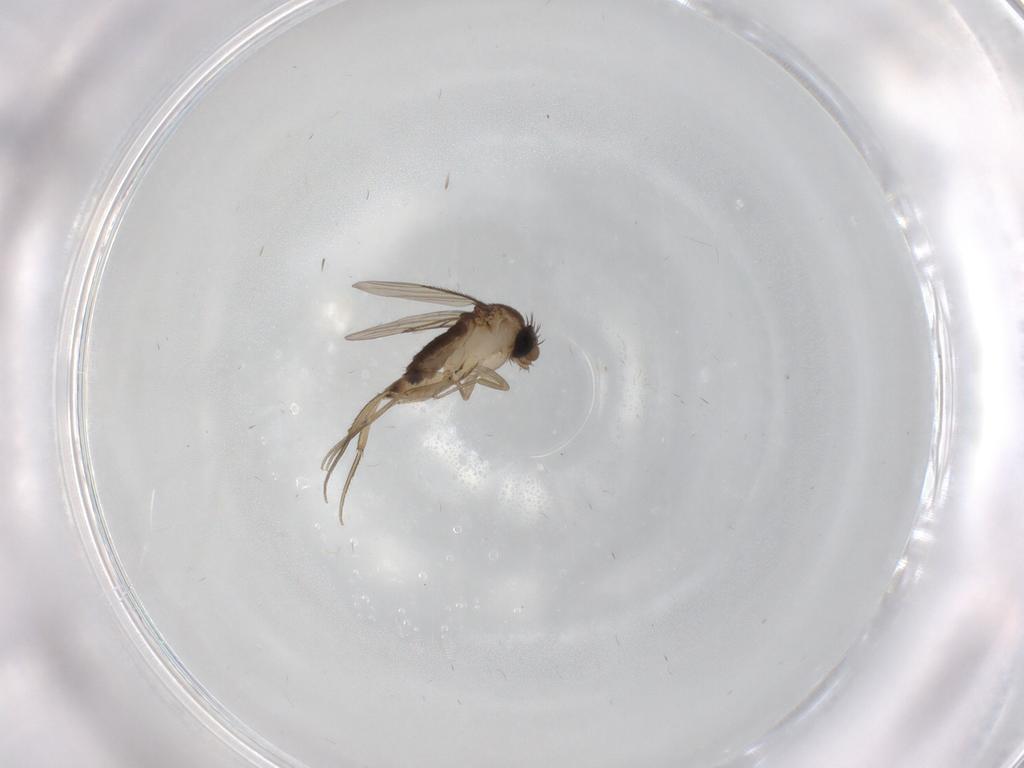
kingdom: Animalia
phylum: Arthropoda
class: Insecta
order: Diptera
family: Phoridae
